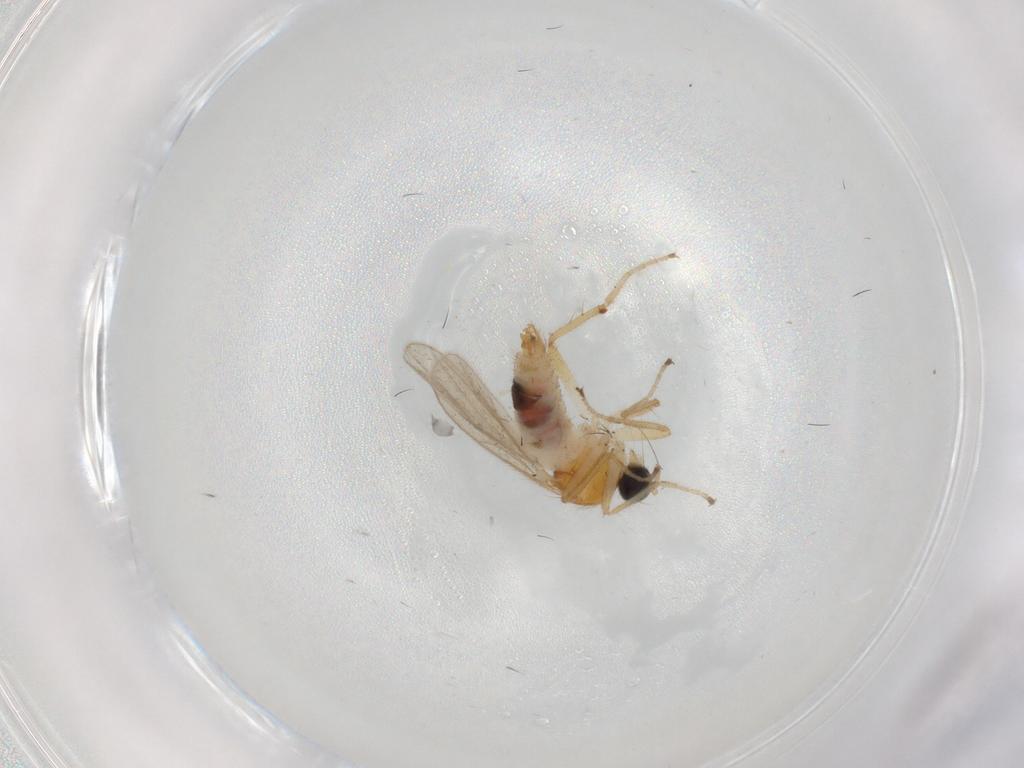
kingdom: Animalia
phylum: Arthropoda
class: Insecta
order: Diptera
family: Hybotidae
